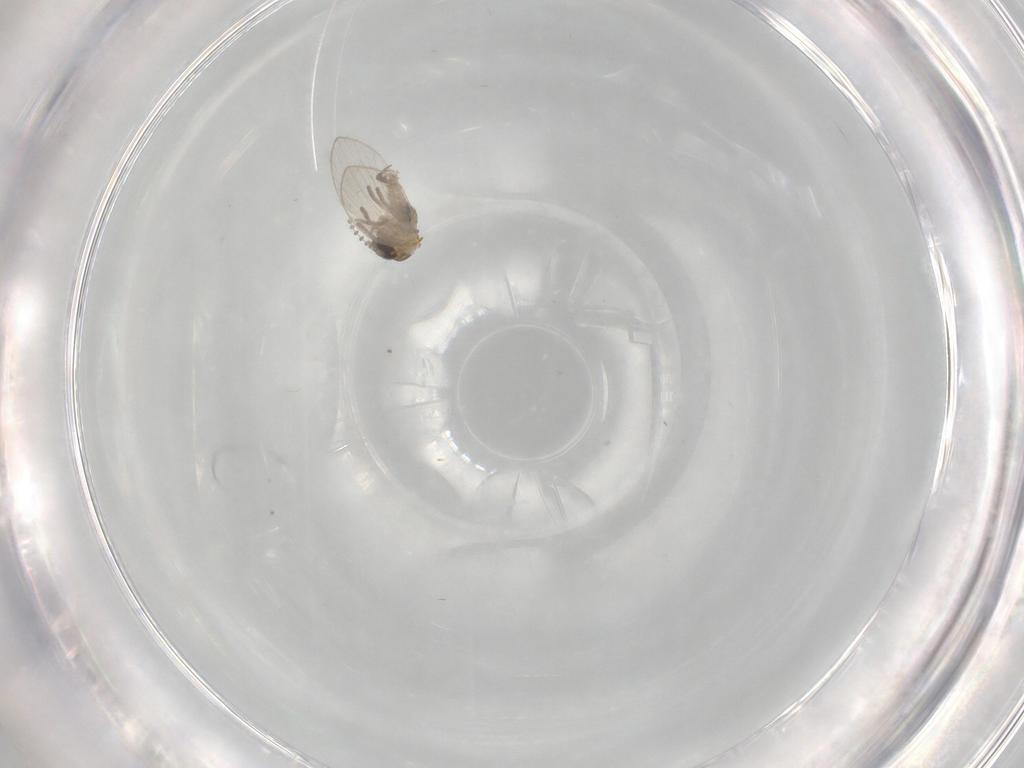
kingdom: Animalia
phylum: Arthropoda
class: Insecta
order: Diptera
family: Psychodidae
